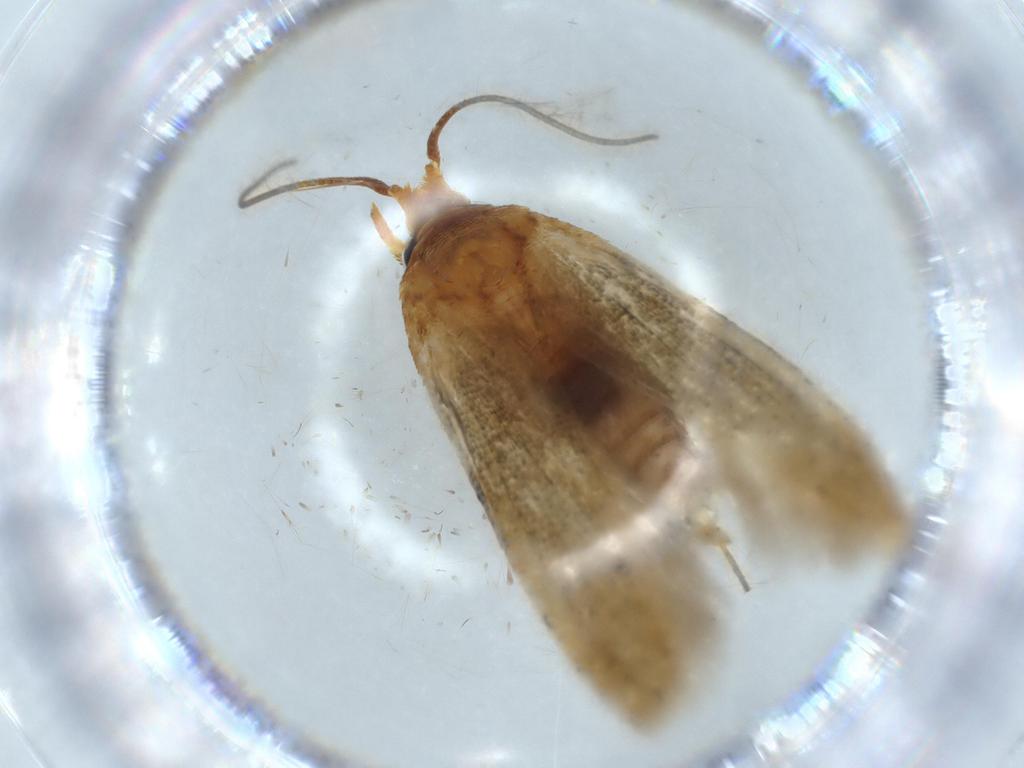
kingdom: Animalia
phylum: Arthropoda
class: Insecta
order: Lepidoptera
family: Coleophoridae
